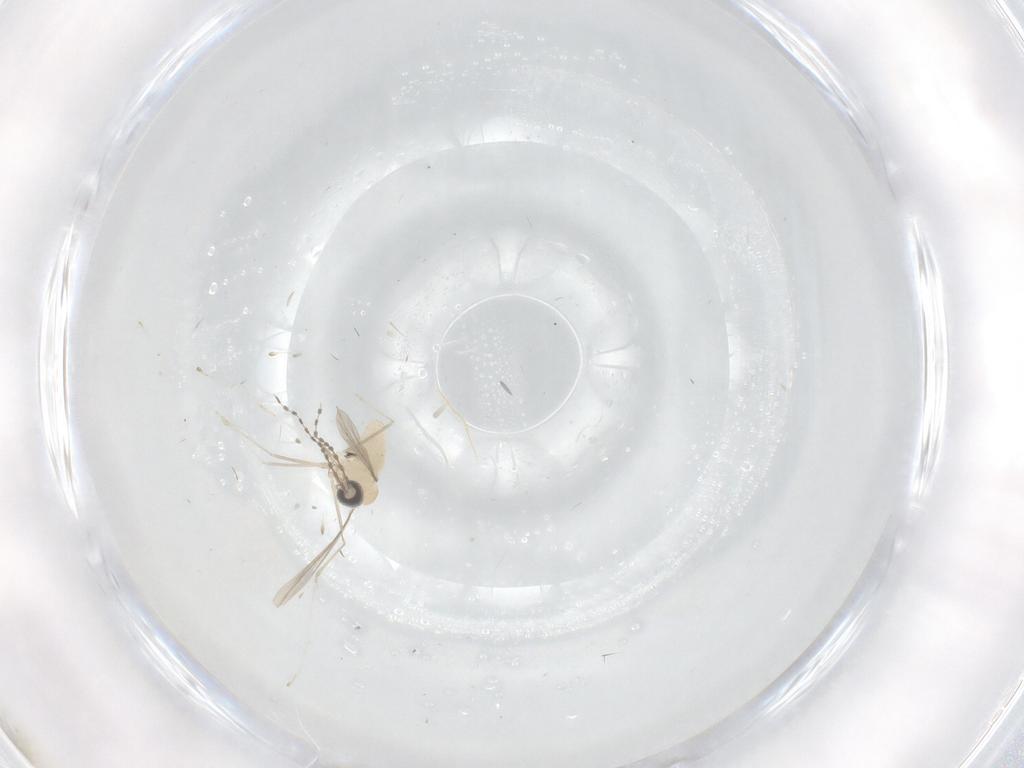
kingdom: Animalia
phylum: Arthropoda
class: Insecta
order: Diptera
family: Cecidomyiidae
